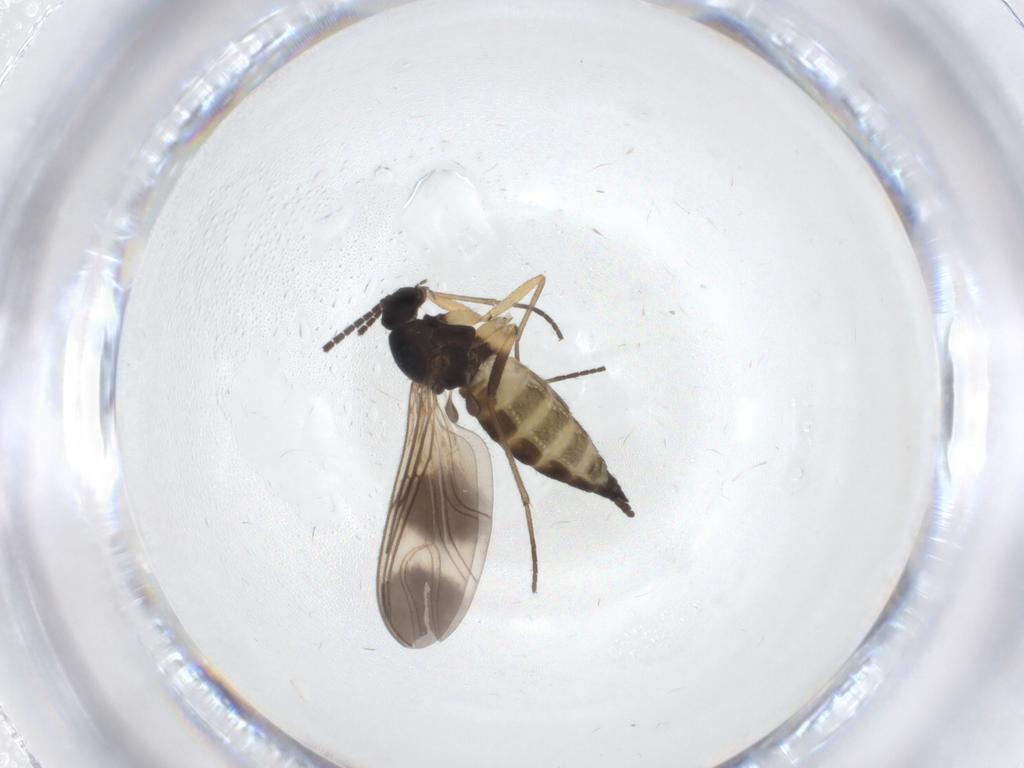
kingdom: Animalia
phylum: Arthropoda
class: Insecta
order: Diptera
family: Sciaridae
